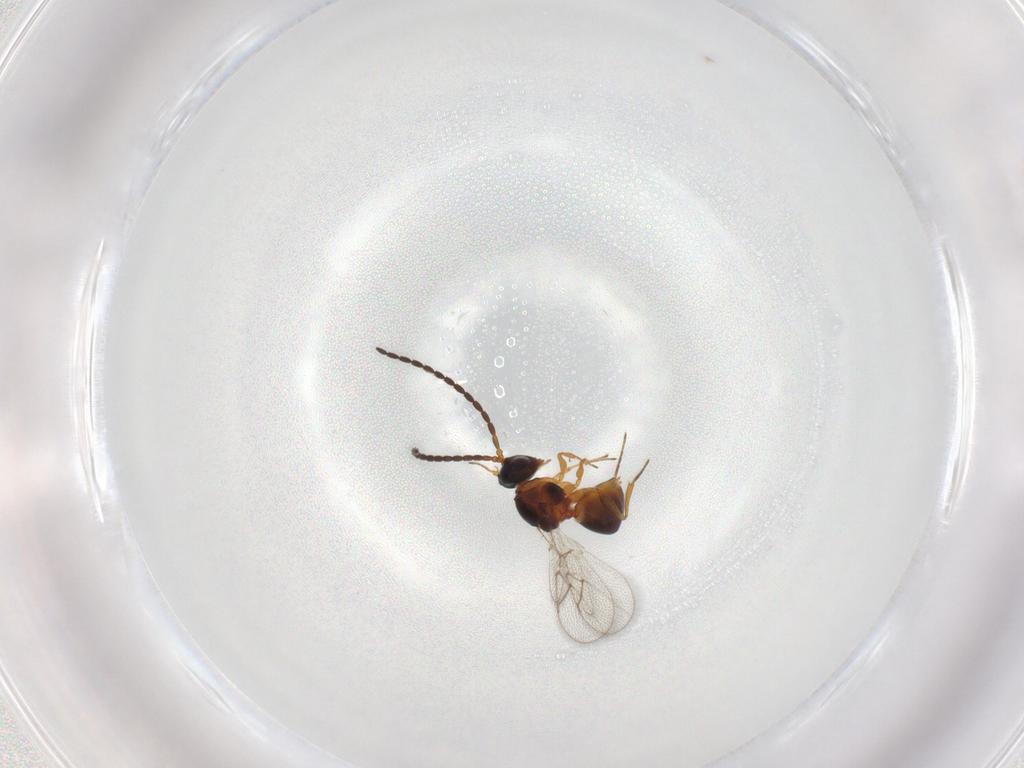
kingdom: Animalia
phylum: Arthropoda
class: Insecta
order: Hymenoptera
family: Figitidae
